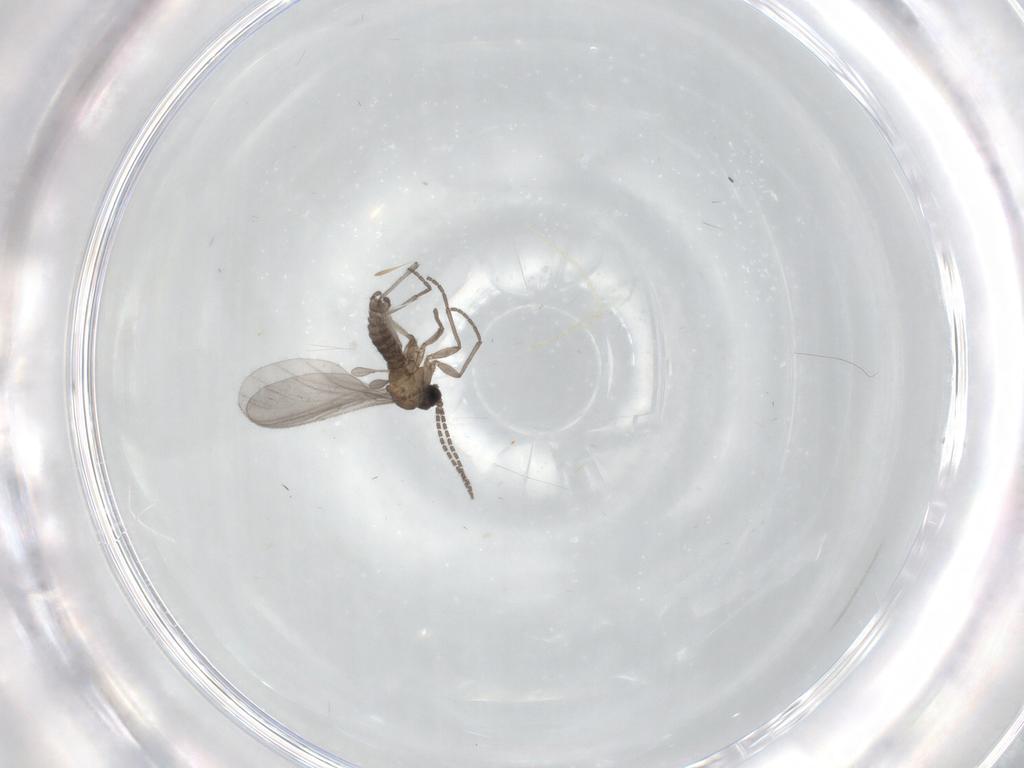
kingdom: Animalia
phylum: Arthropoda
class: Insecta
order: Diptera
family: Sciaridae
